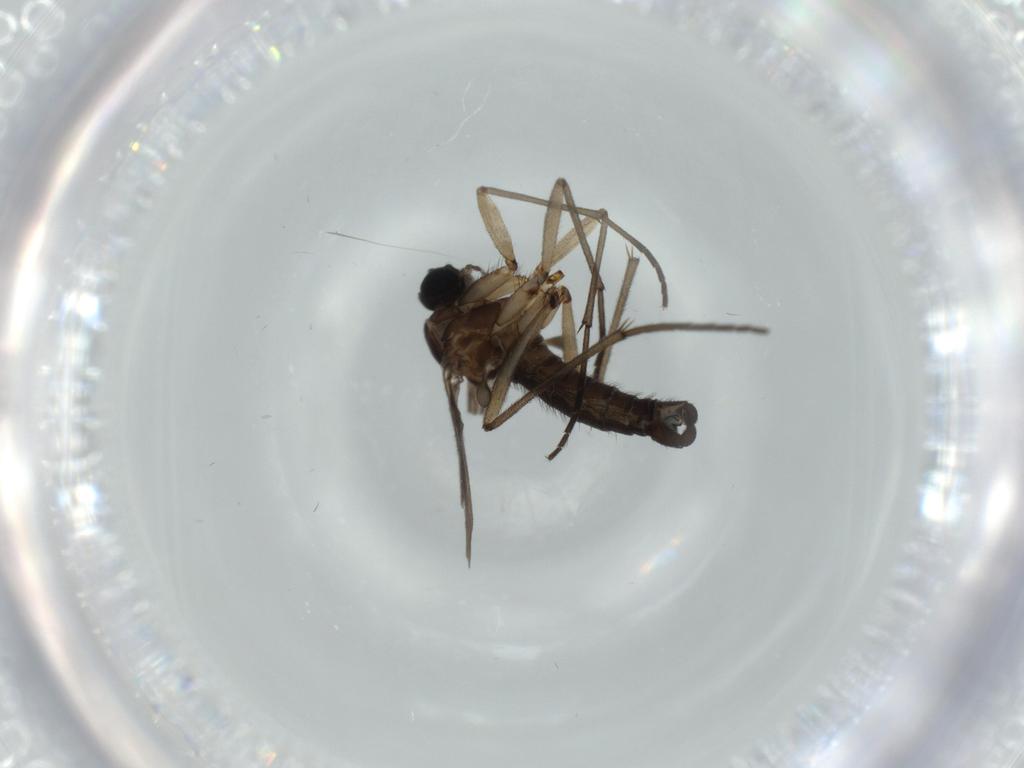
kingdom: Animalia
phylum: Arthropoda
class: Insecta
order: Diptera
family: Sciaridae
